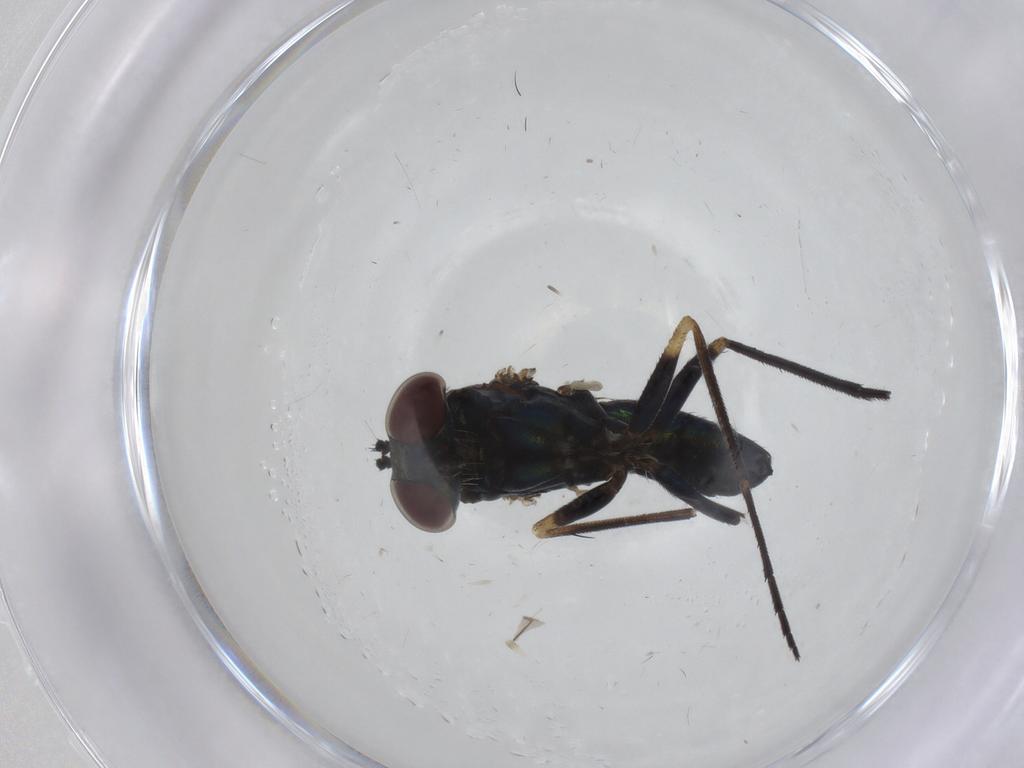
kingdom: Animalia
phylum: Arthropoda
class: Insecta
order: Diptera
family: Dolichopodidae
